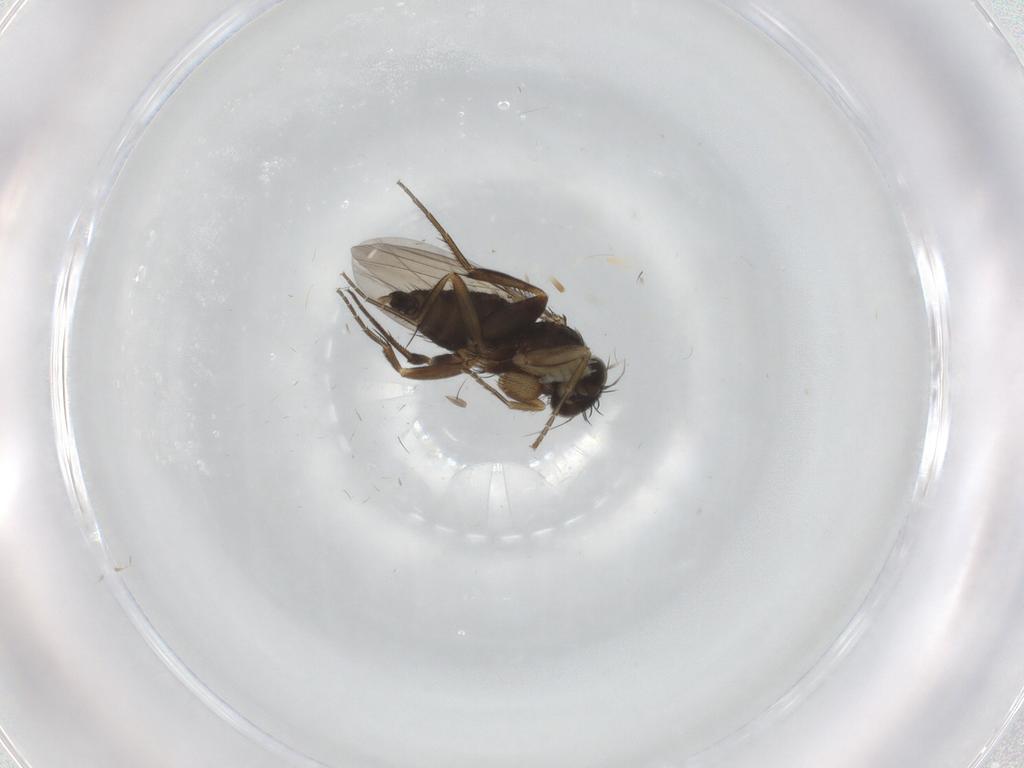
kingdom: Animalia
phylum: Arthropoda
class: Insecta
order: Diptera
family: Phoridae
